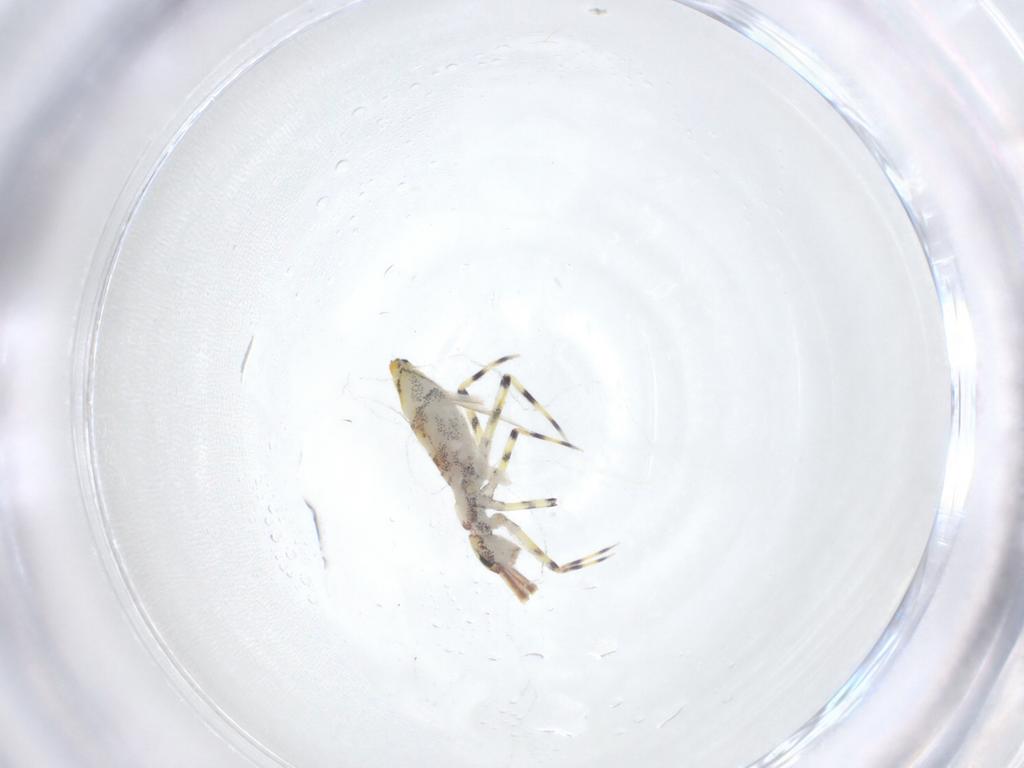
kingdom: Animalia
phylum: Arthropoda
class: Collembola
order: Entomobryomorpha
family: Entomobryidae
